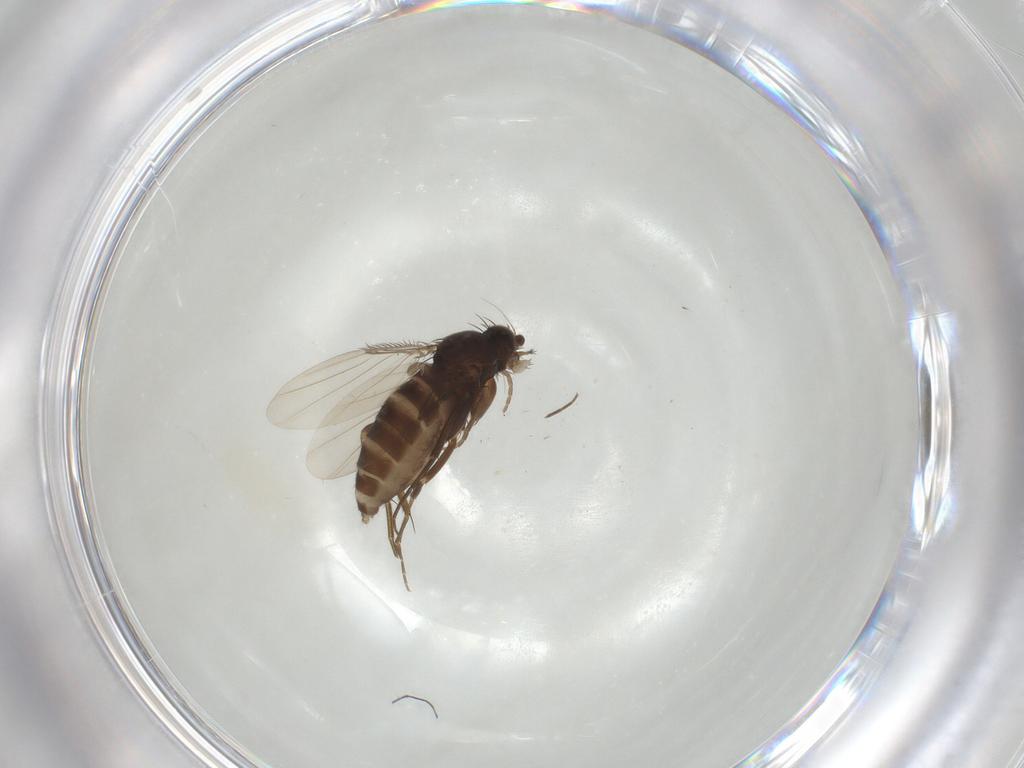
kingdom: Animalia
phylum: Arthropoda
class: Insecta
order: Diptera
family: Phoridae
